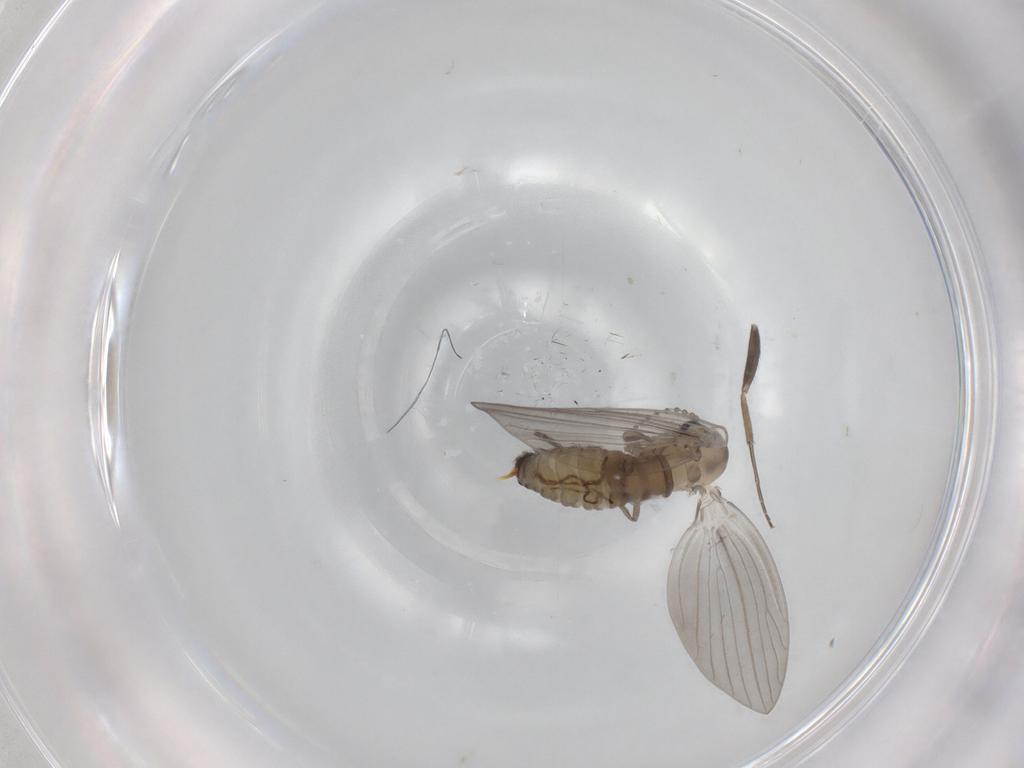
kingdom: Animalia
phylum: Arthropoda
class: Insecta
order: Diptera
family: Psychodidae
